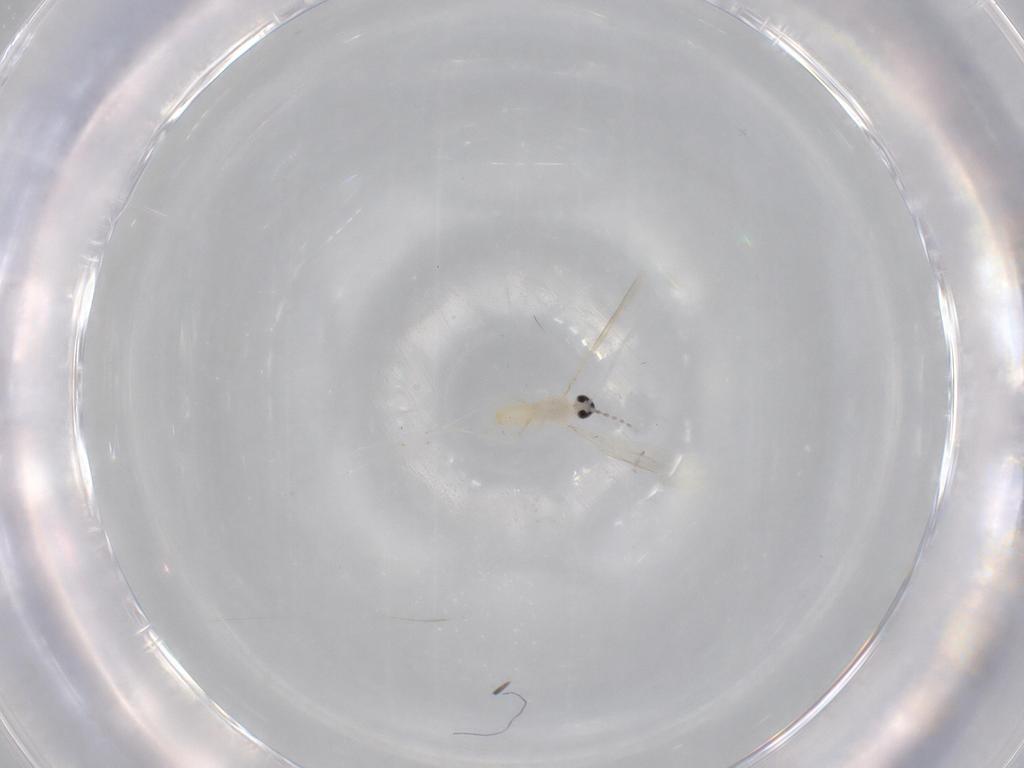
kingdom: Animalia
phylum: Arthropoda
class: Insecta
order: Diptera
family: Cecidomyiidae
